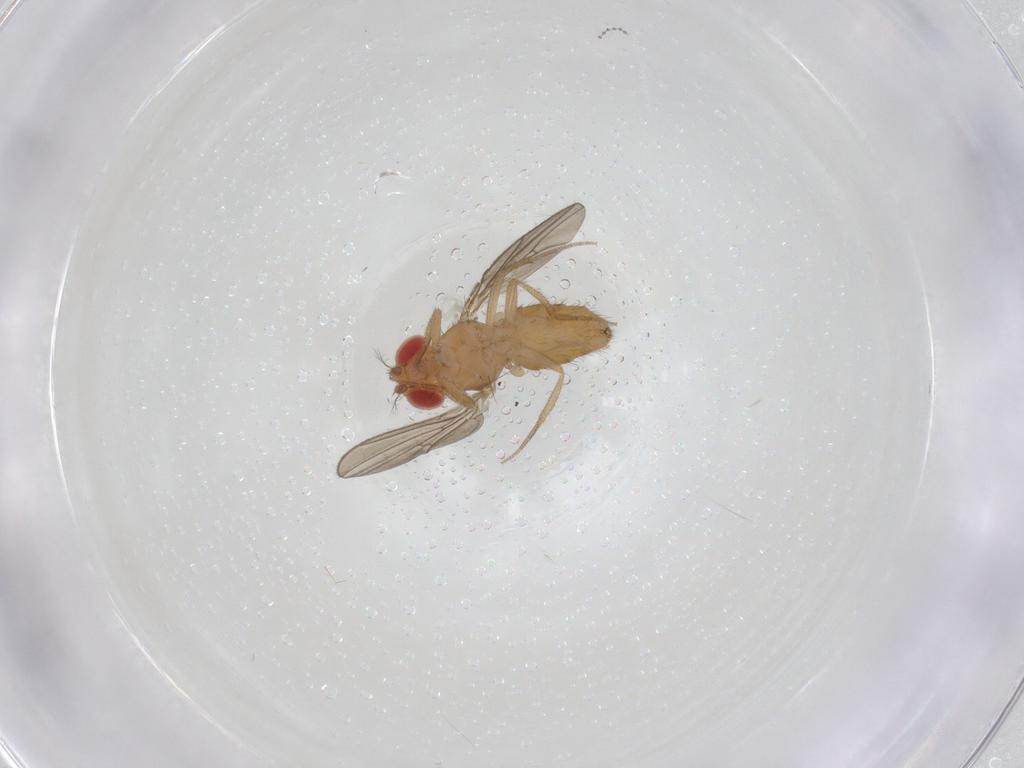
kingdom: Animalia
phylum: Arthropoda
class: Insecta
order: Diptera
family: Drosophilidae
